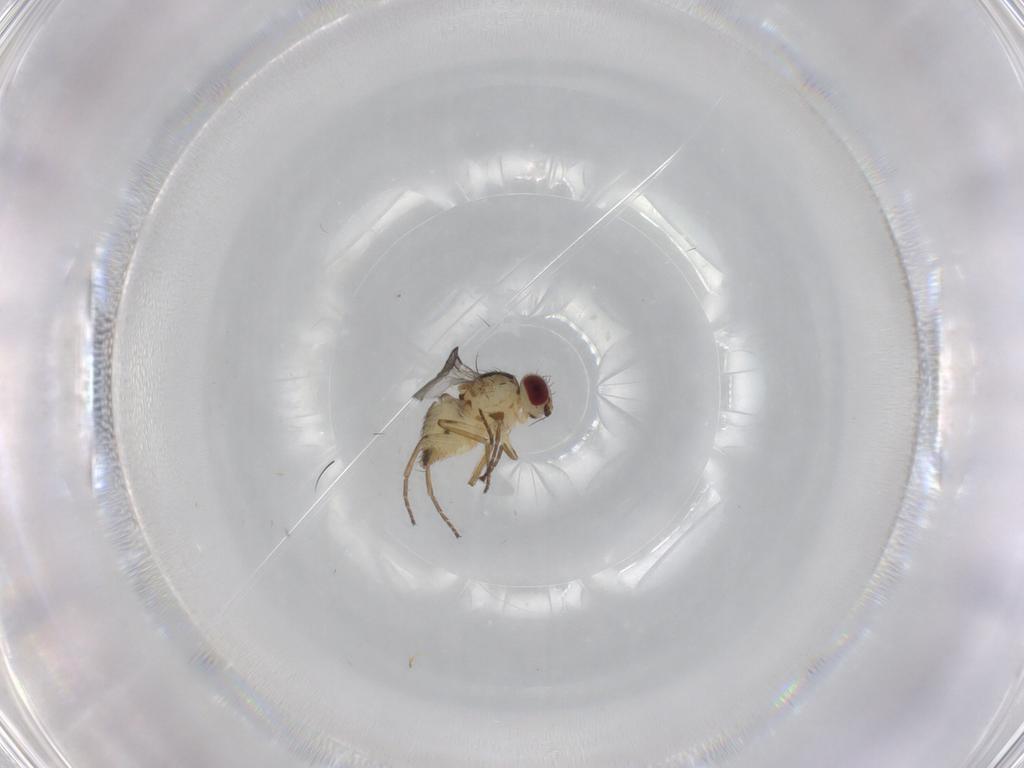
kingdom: Animalia
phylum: Arthropoda
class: Insecta
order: Diptera
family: Agromyzidae
